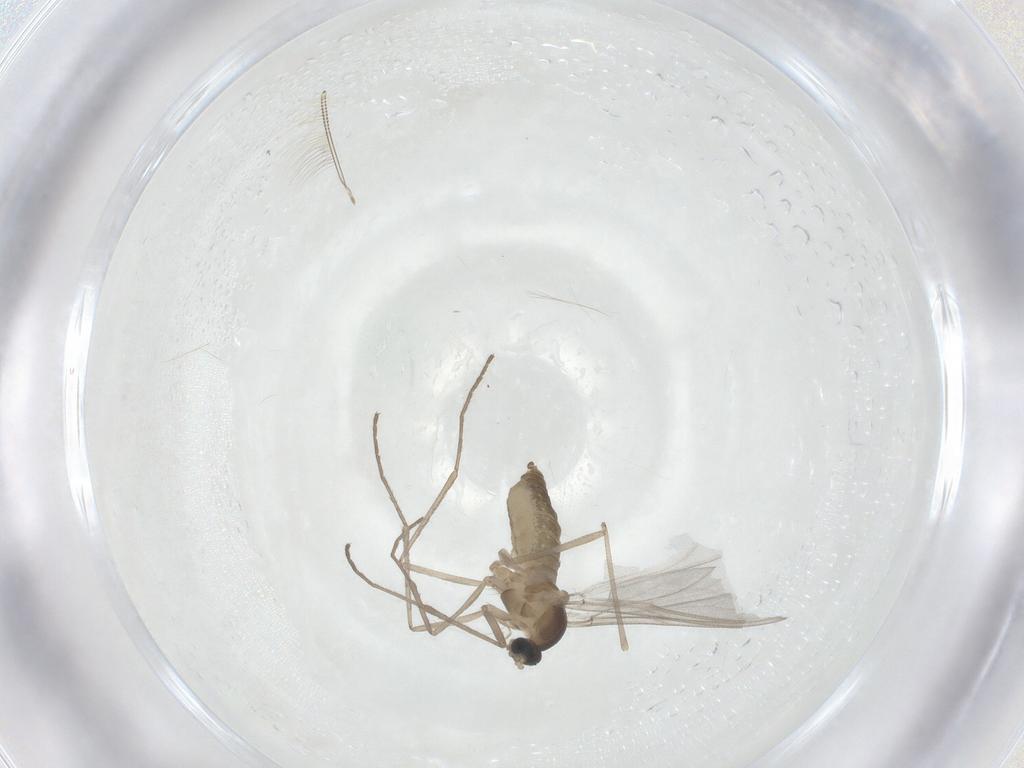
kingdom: Animalia
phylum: Arthropoda
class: Insecta
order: Diptera
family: Cecidomyiidae
